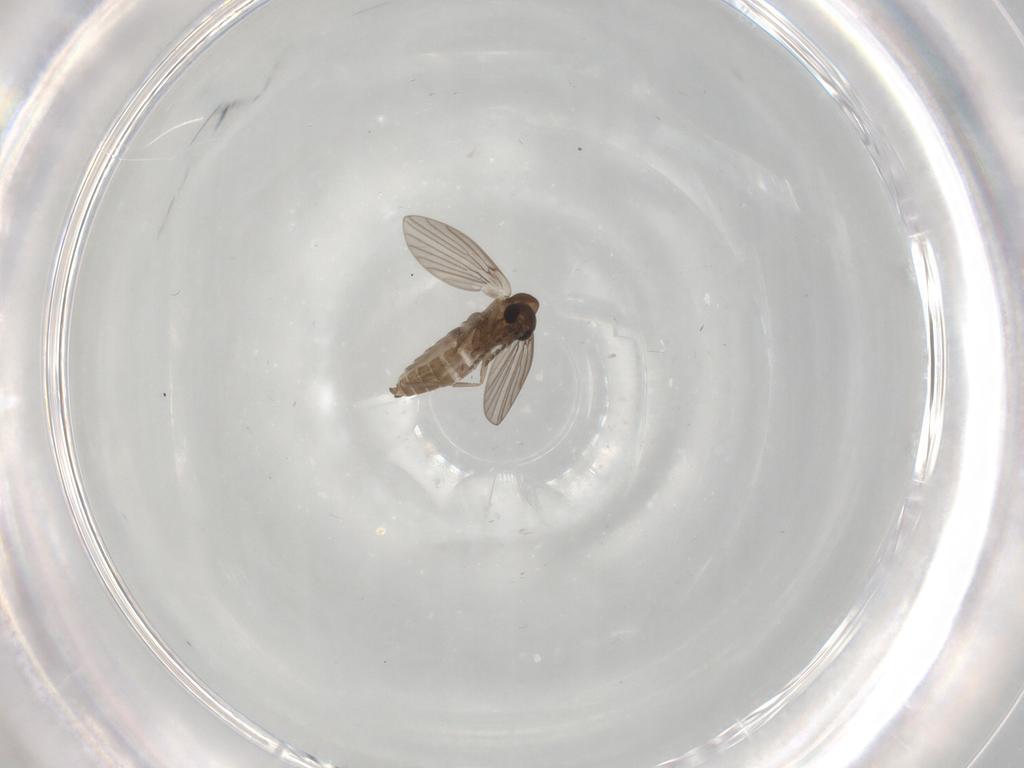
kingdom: Animalia
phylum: Arthropoda
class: Insecta
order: Diptera
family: Psychodidae
